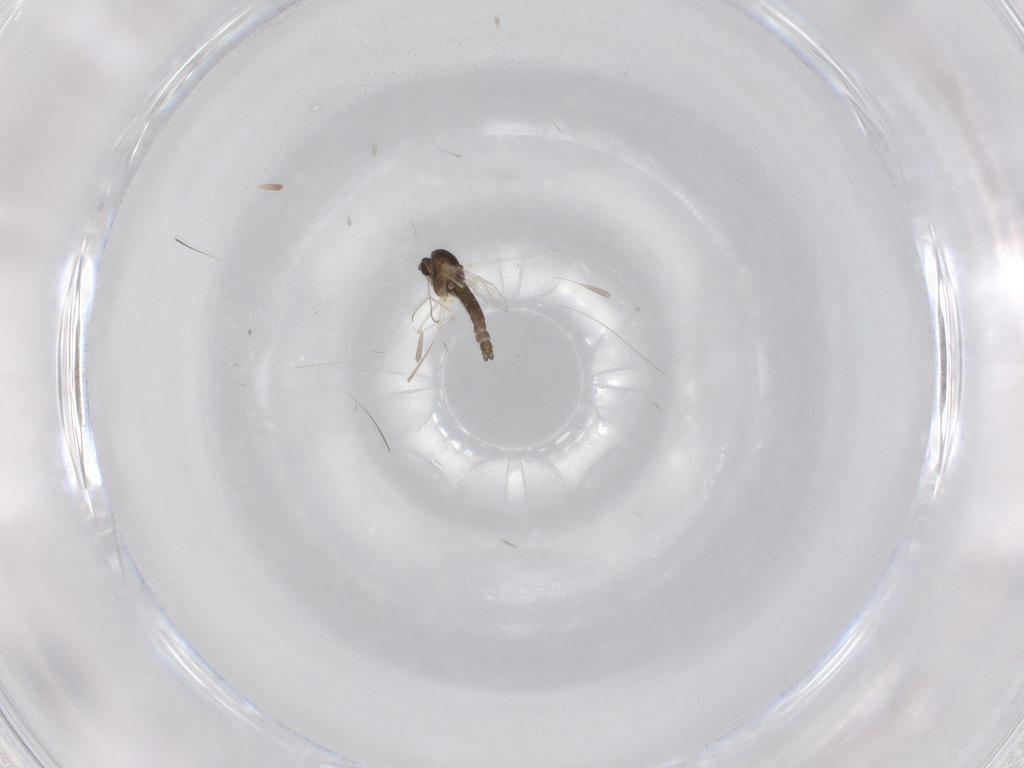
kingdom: Animalia
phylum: Arthropoda
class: Insecta
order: Diptera
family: Chironomidae
